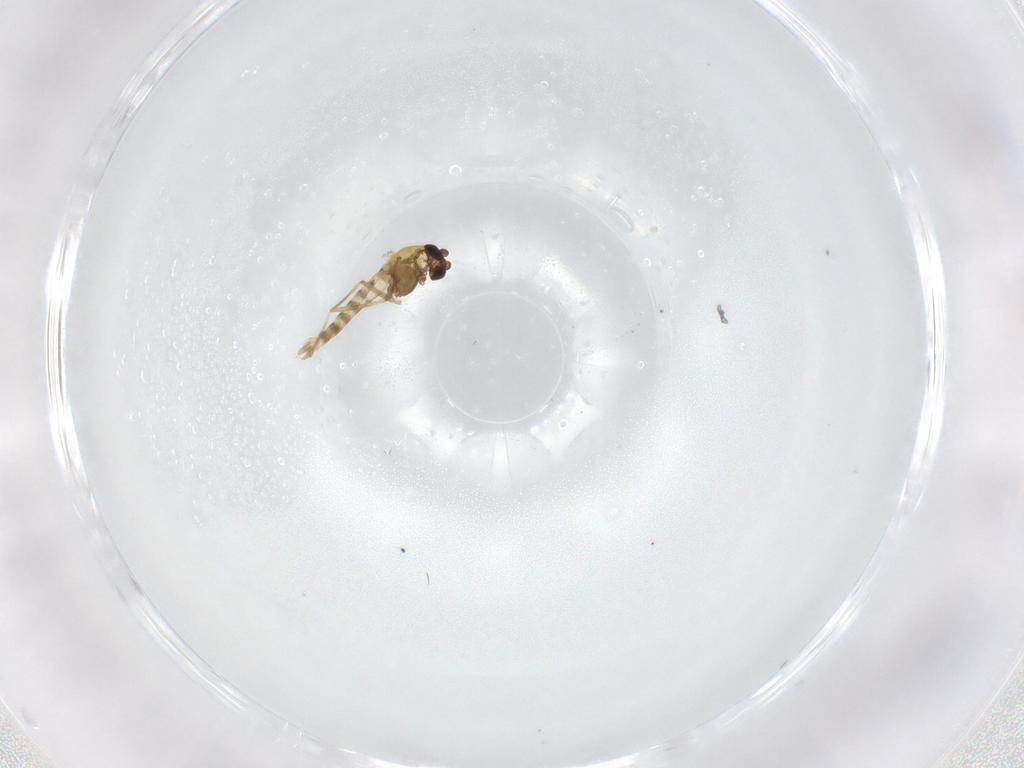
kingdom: Animalia
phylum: Arthropoda
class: Insecta
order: Diptera
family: Chironomidae
